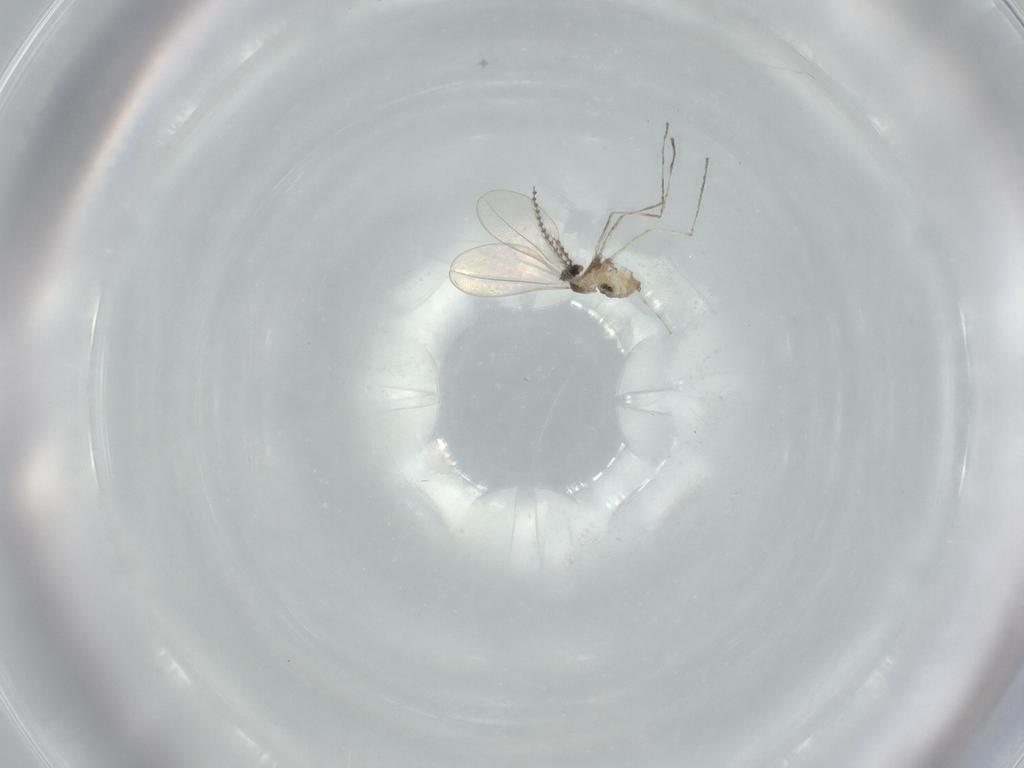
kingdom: Animalia
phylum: Arthropoda
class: Insecta
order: Diptera
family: Cecidomyiidae
